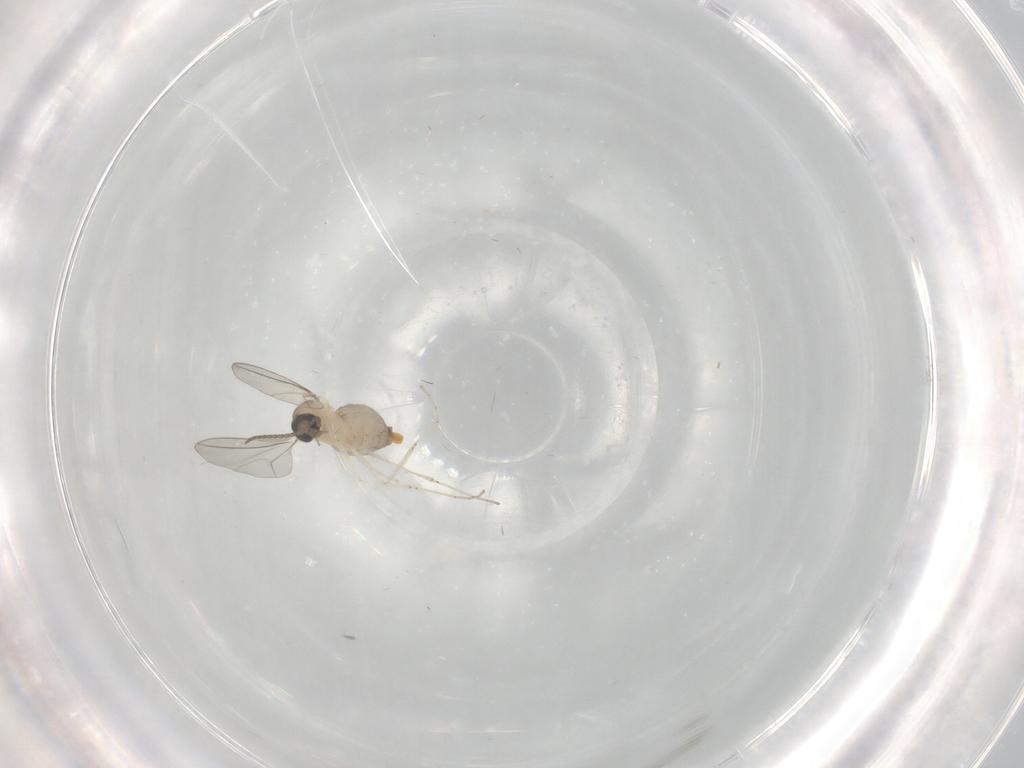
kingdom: Animalia
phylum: Arthropoda
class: Insecta
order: Diptera
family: Cecidomyiidae
